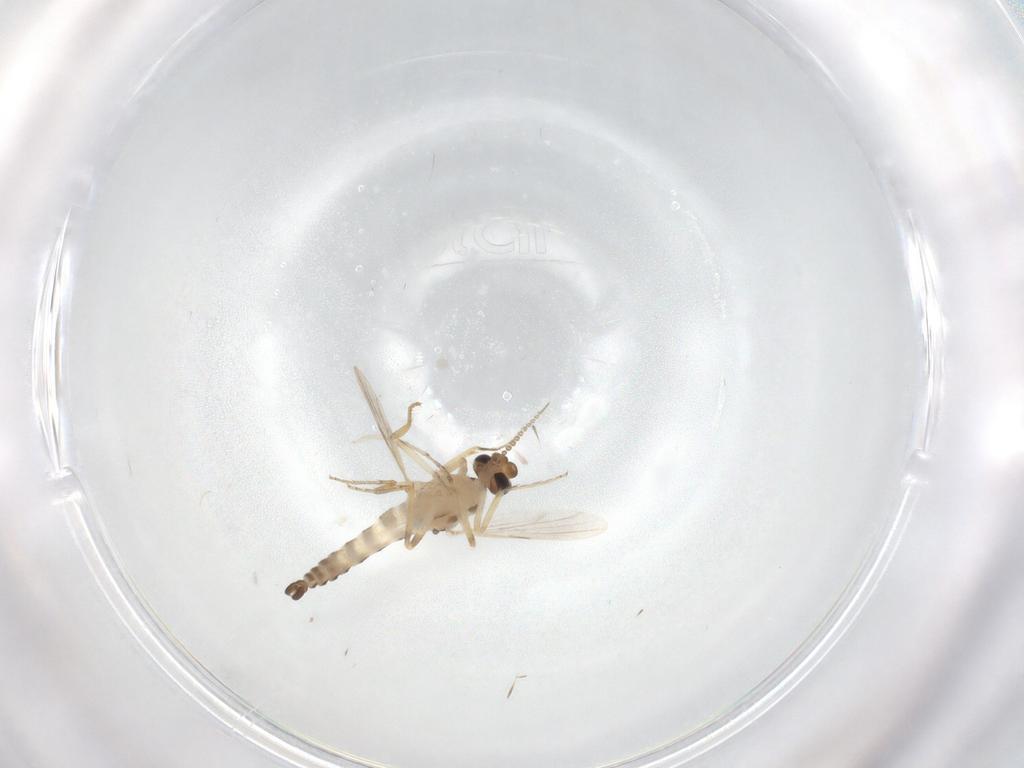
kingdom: Animalia
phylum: Arthropoda
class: Insecta
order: Diptera
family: Ceratopogonidae
